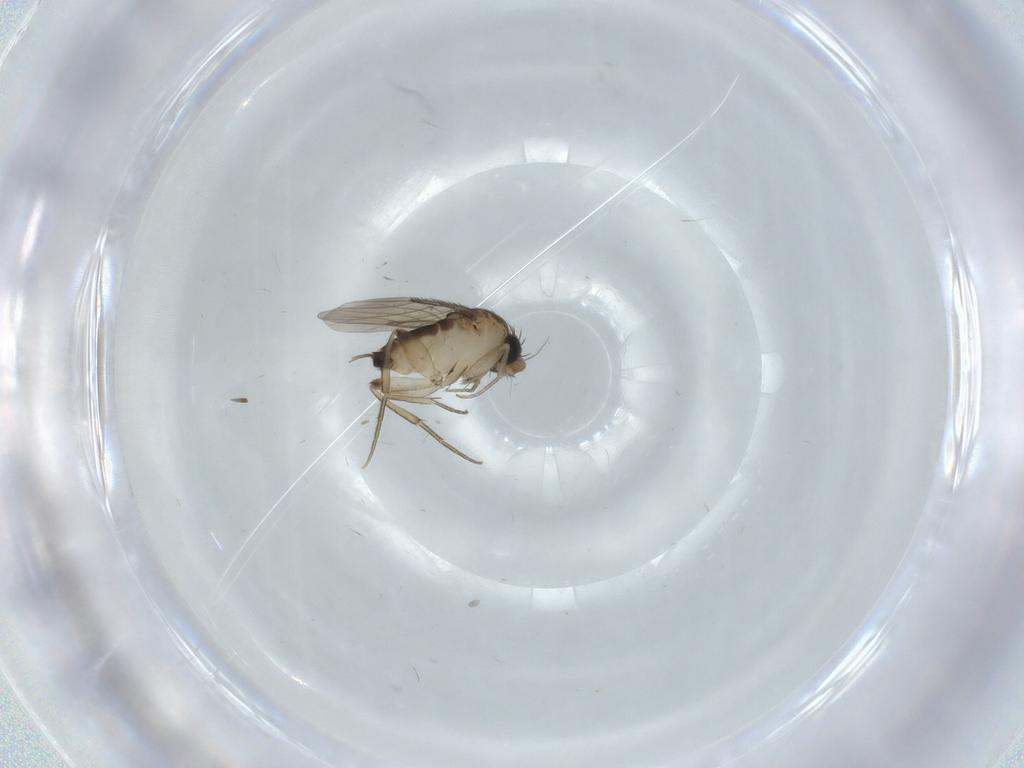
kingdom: Animalia
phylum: Arthropoda
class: Insecta
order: Diptera
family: Phoridae
